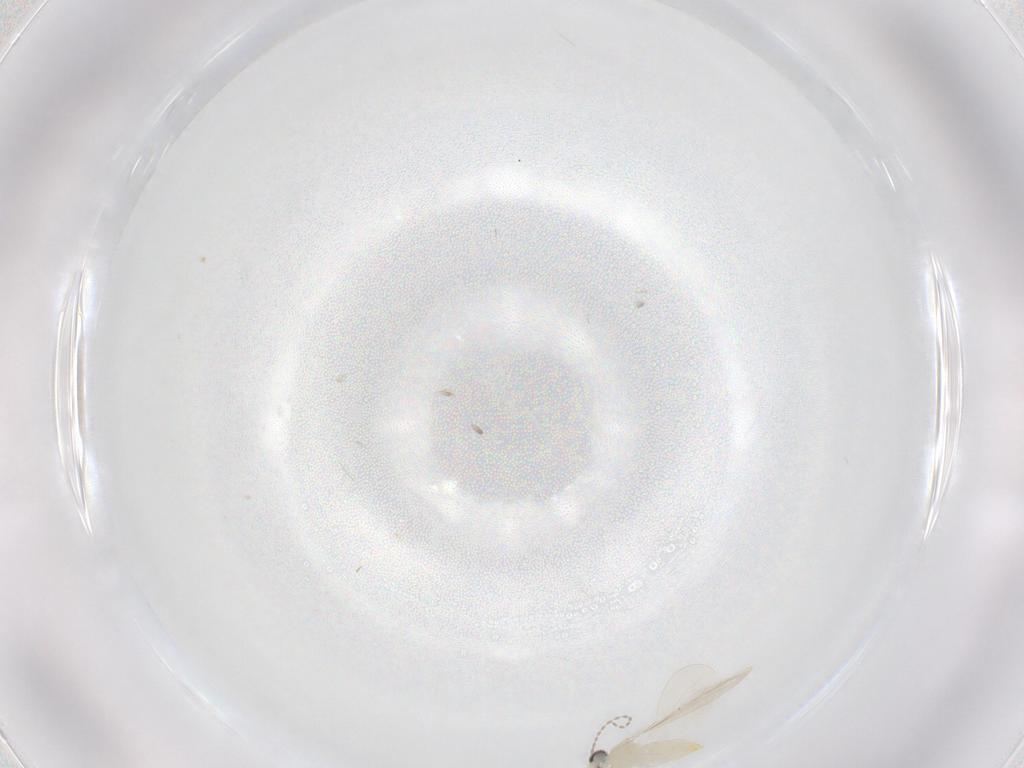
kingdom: Animalia
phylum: Arthropoda
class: Insecta
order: Diptera
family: Cecidomyiidae
